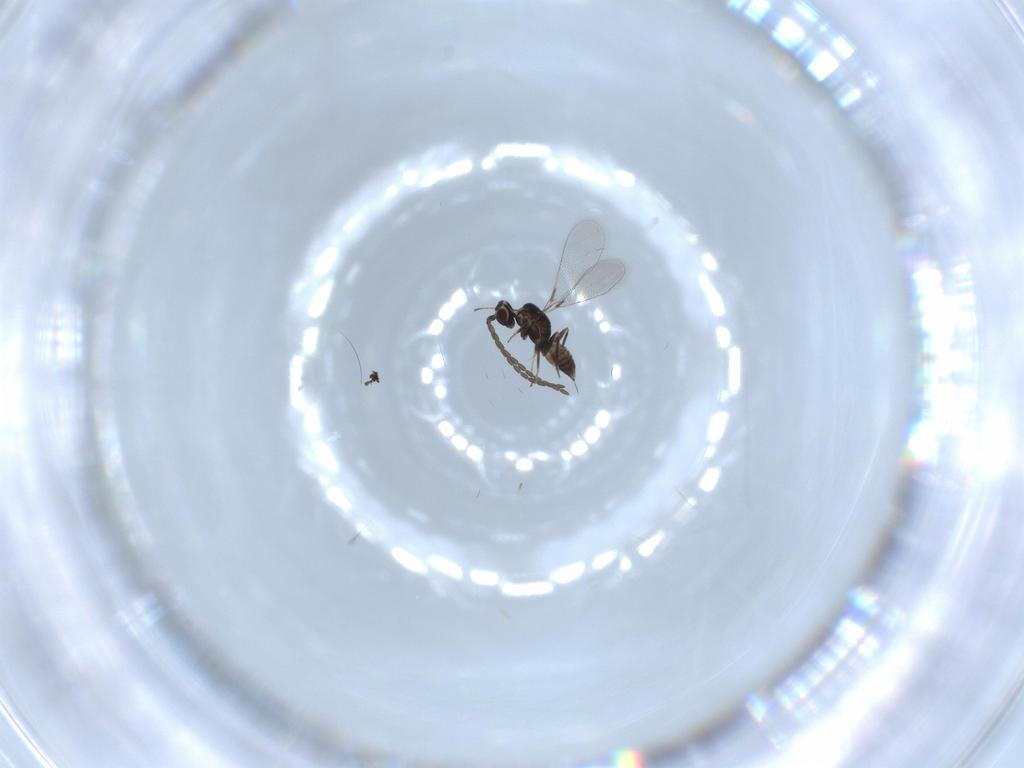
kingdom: Animalia
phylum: Arthropoda
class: Insecta
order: Hymenoptera
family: Mymaridae
